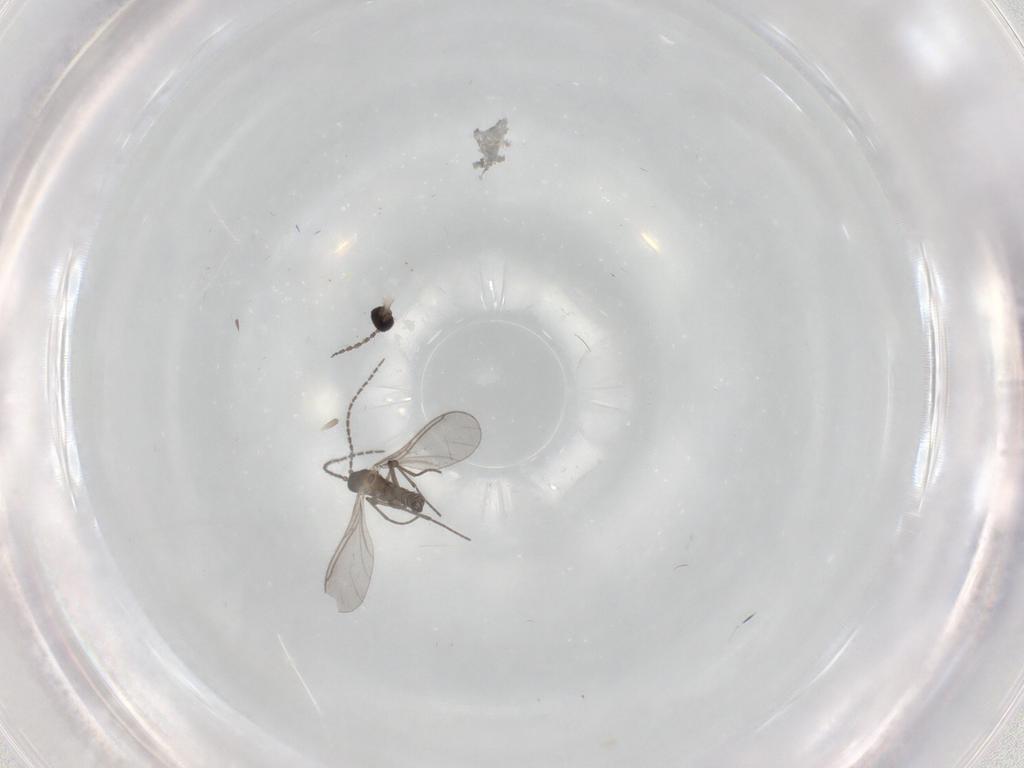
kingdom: Animalia
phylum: Arthropoda
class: Insecta
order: Diptera
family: Sciaridae
